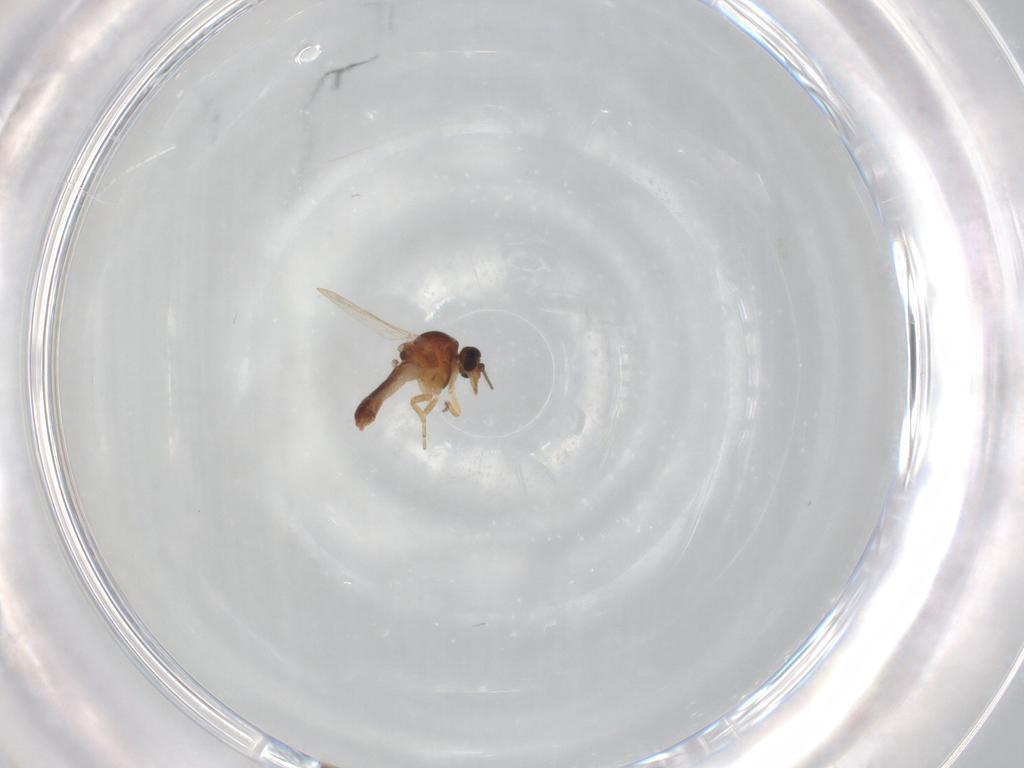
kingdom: Animalia
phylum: Arthropoda
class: Insecta
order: Diptera
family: Ceratopogonidae
